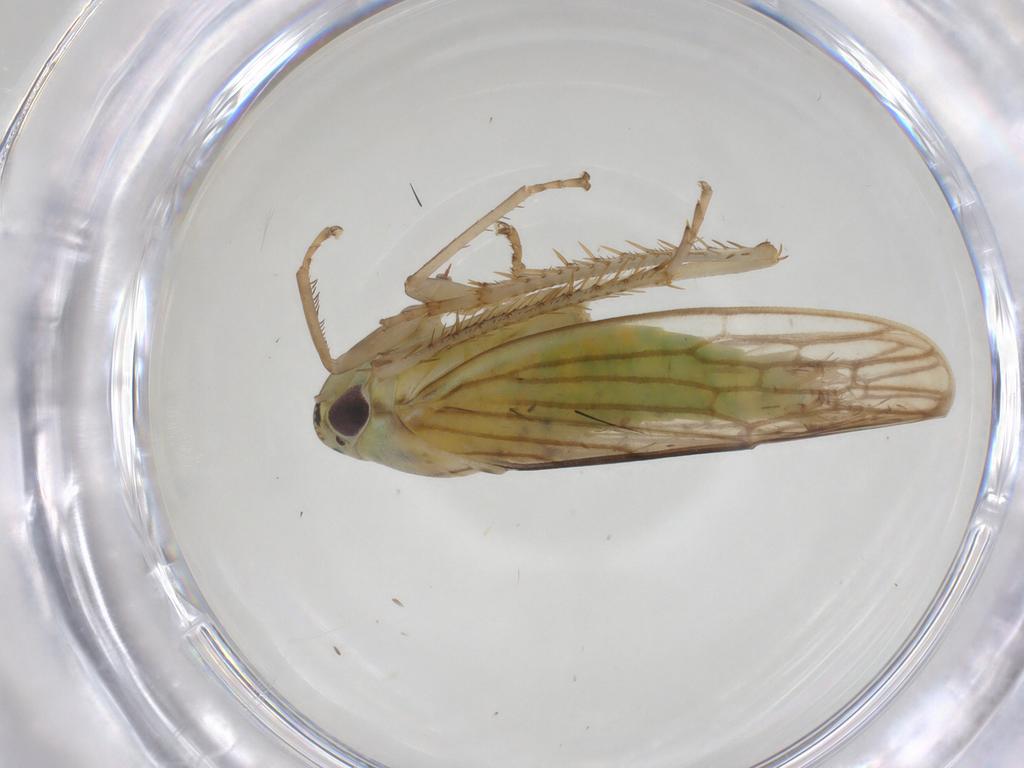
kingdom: Animalia
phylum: Arthropoda
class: Insecta
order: Hemiptera
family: Cicadellidae
